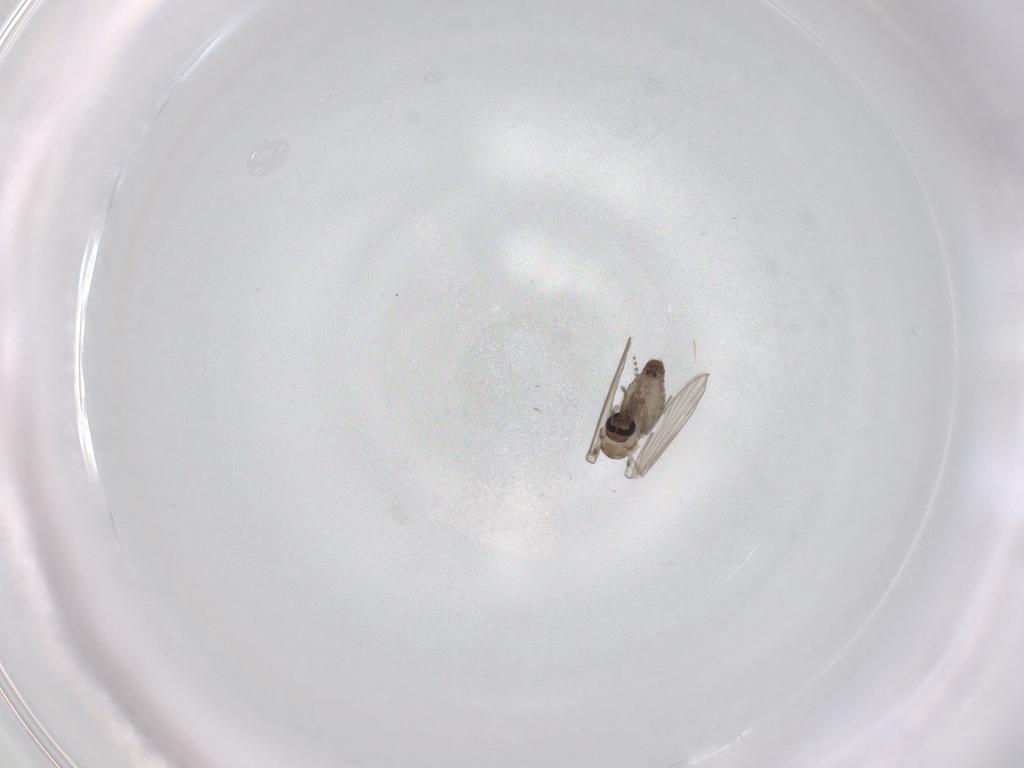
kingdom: Animalia
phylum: Arthropoda
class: Insecta
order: Diptera
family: Psychodidae
